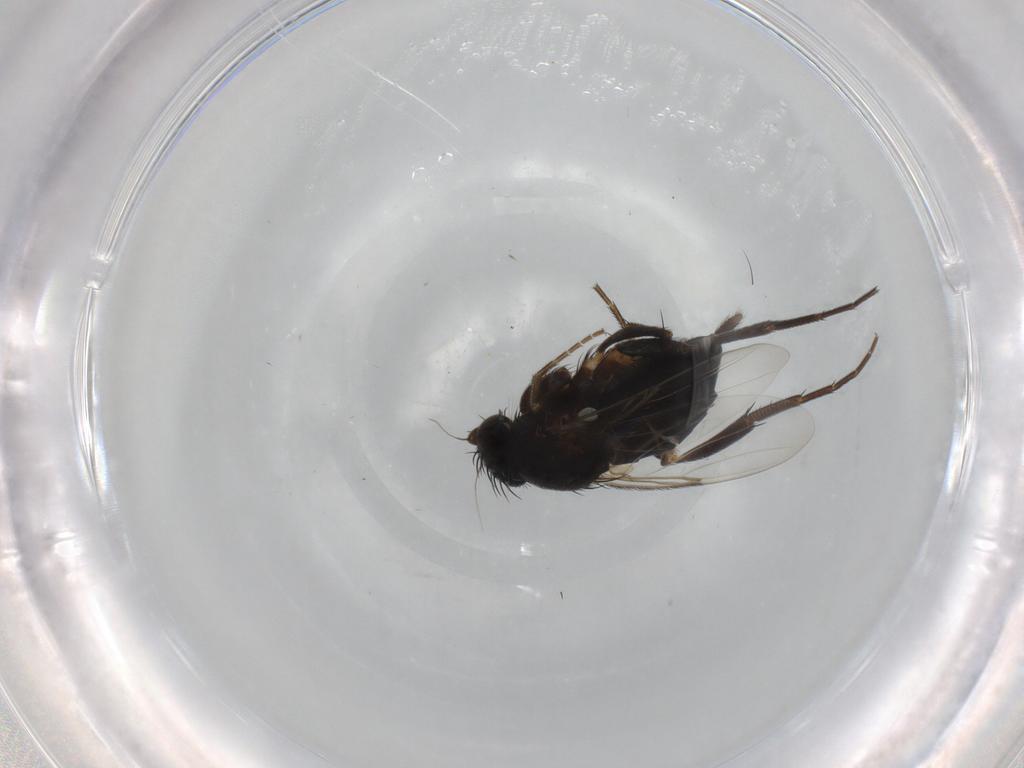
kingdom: Animalia
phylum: Arthropoda
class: Insecta
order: Diptera
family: Phoridae
